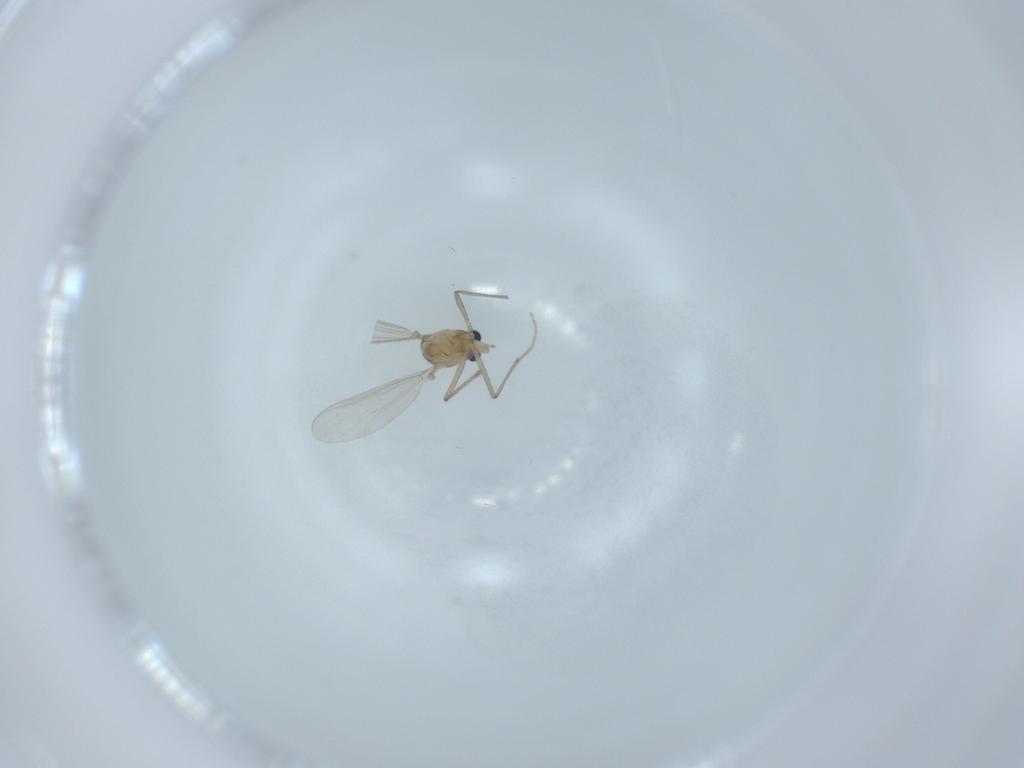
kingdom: Animalia
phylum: Arthropoda
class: Insecta
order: Diptera
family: Chironomidae
